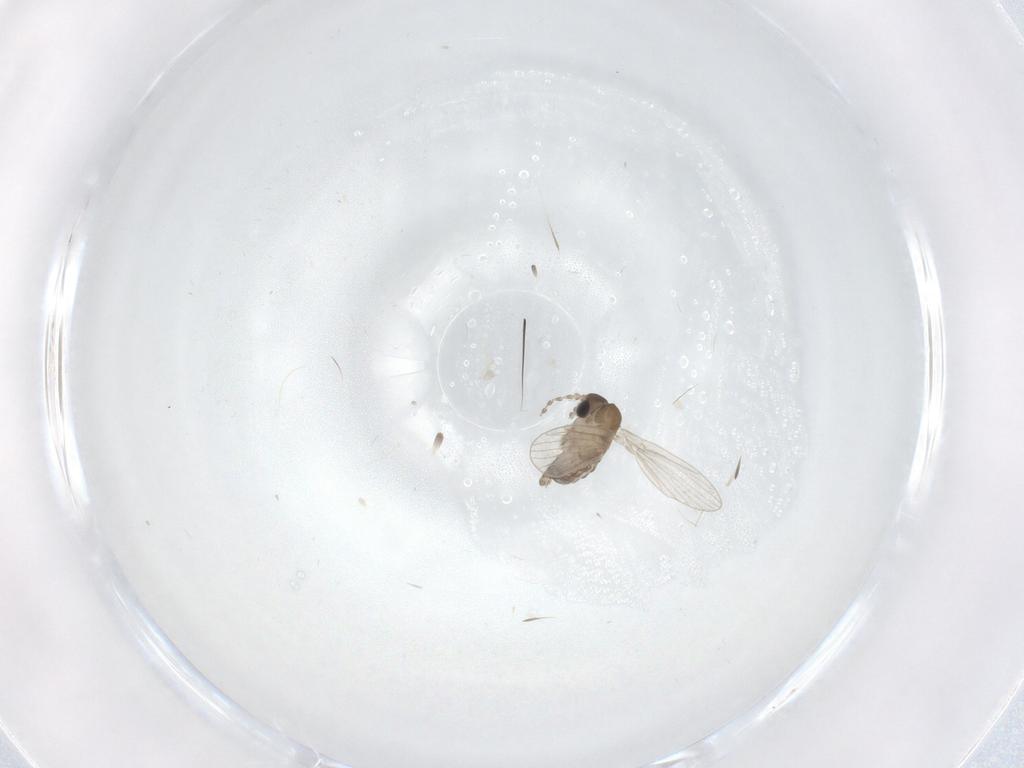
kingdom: Animalia
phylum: Arthropoda
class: Insecta
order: Diptera
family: Psychodidae
